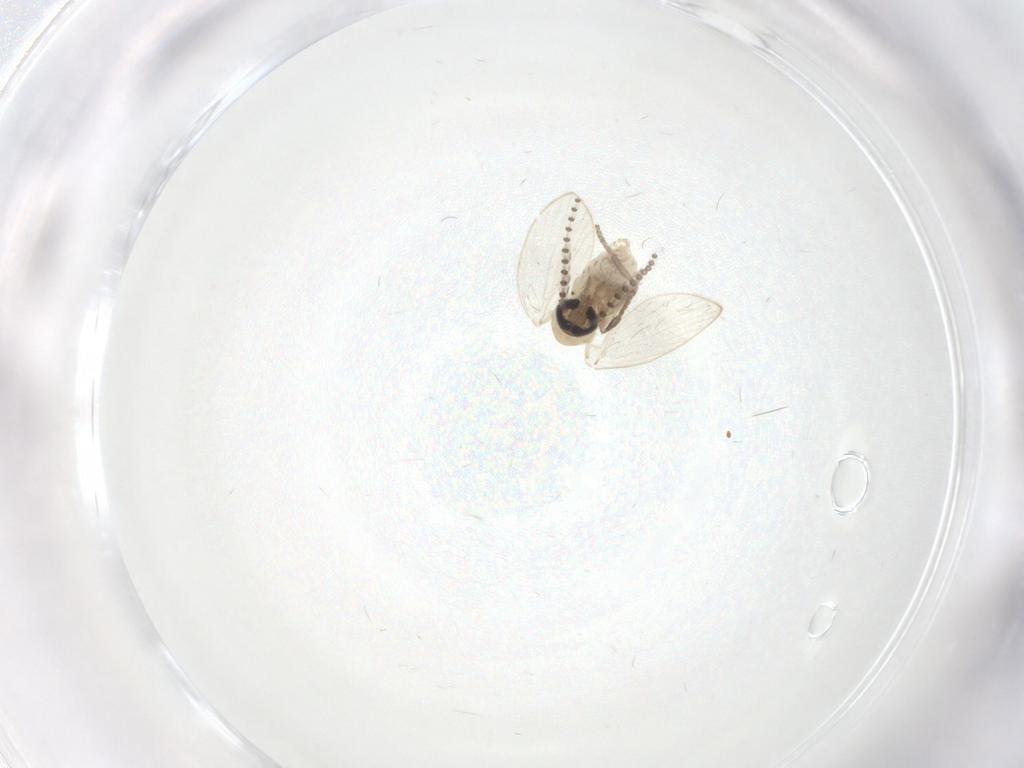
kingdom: Animalia
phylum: Arthropoda
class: Insecta
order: Diptera
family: Psychodidae
